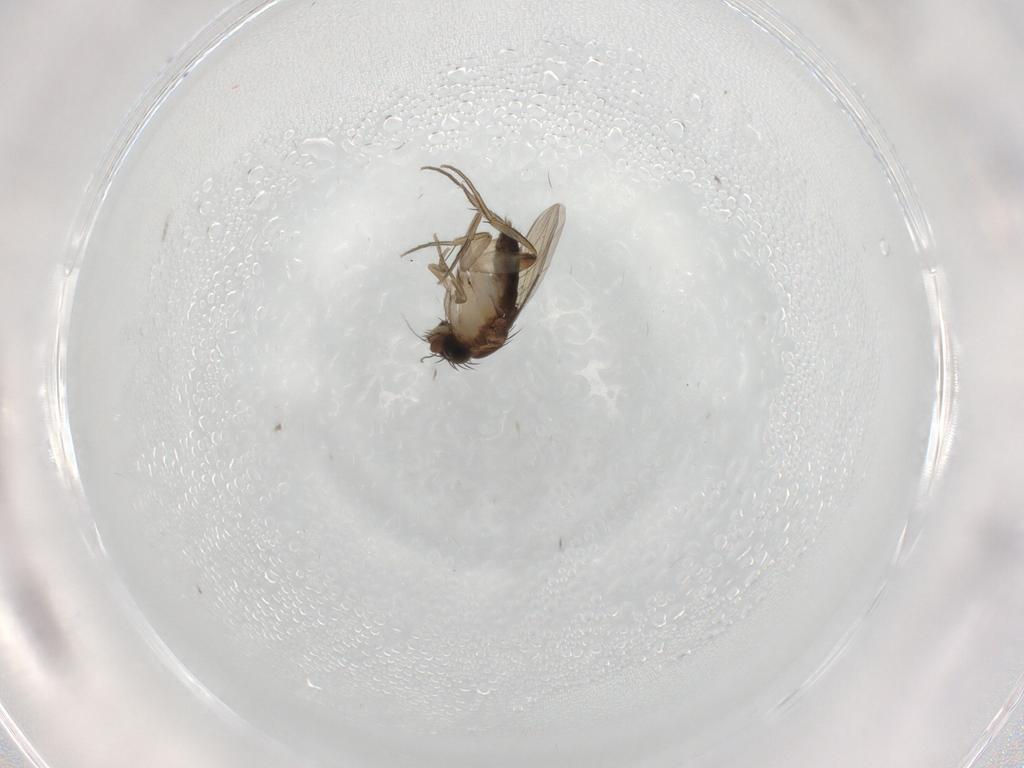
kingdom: Animalia
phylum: Arthropoda
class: Insecta
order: Diptera
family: Phoridae
